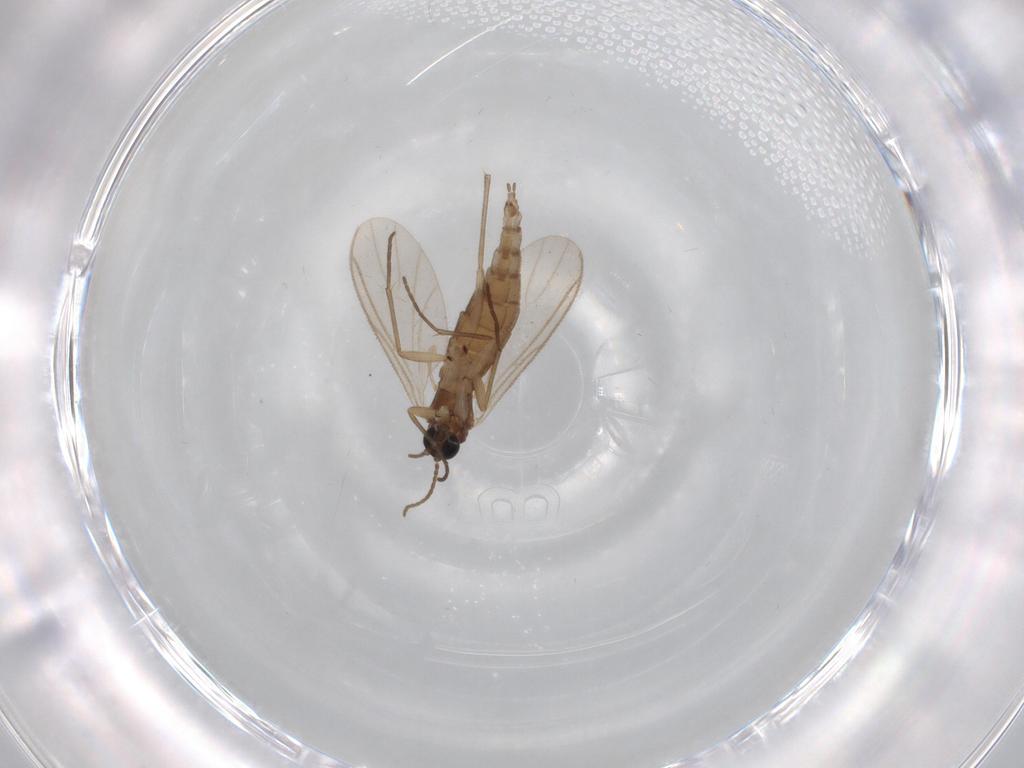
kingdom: Animalia
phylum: Arthropoda
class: Insecta
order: Diptera
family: Sciaridae
